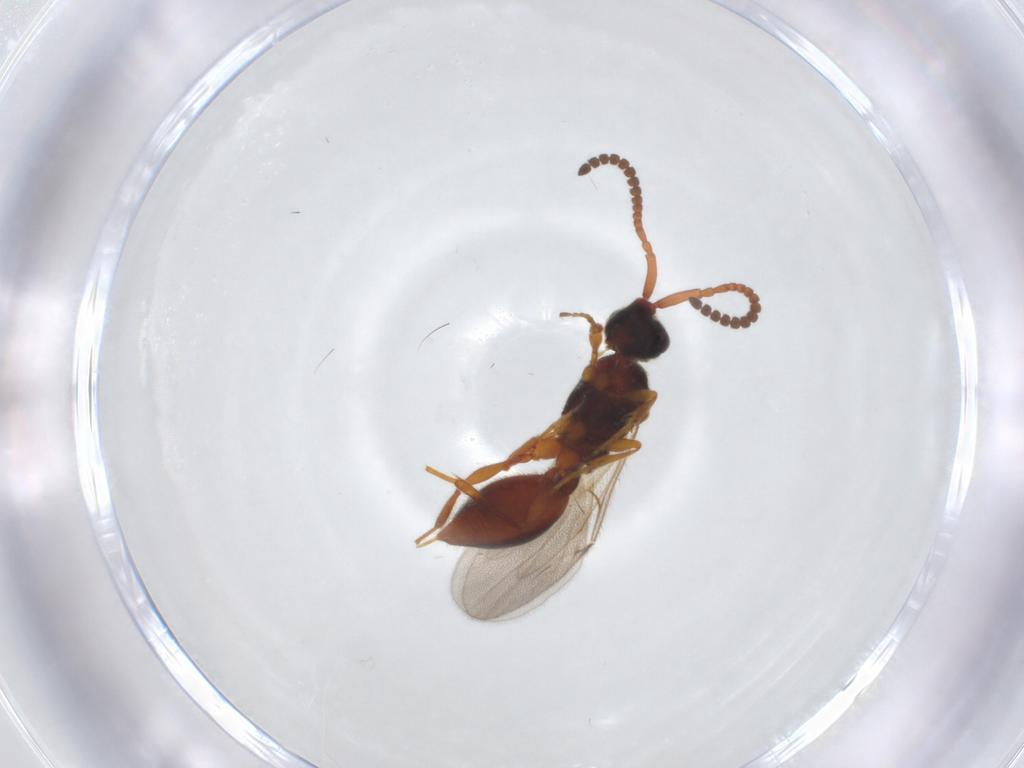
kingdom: Animalia
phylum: Arthropoda
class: Insecta
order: Hymenoptera
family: Diapriidae
